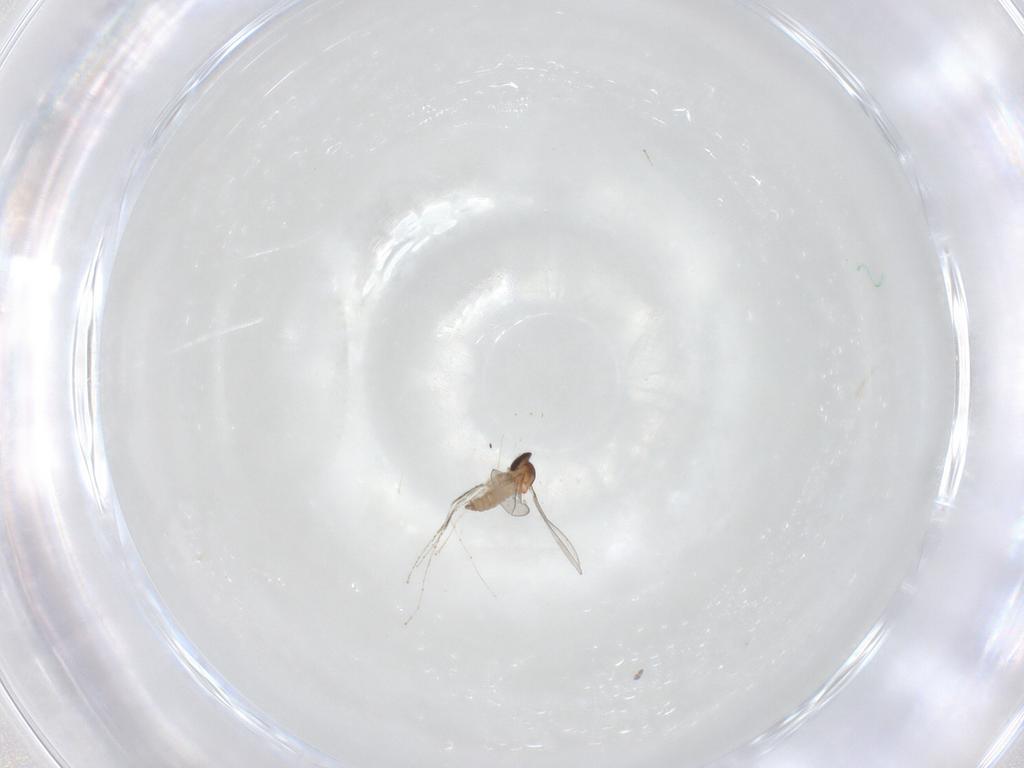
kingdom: Animalia
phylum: Arthropoda
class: Insecta
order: Diptera
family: Cecidomyiidae
